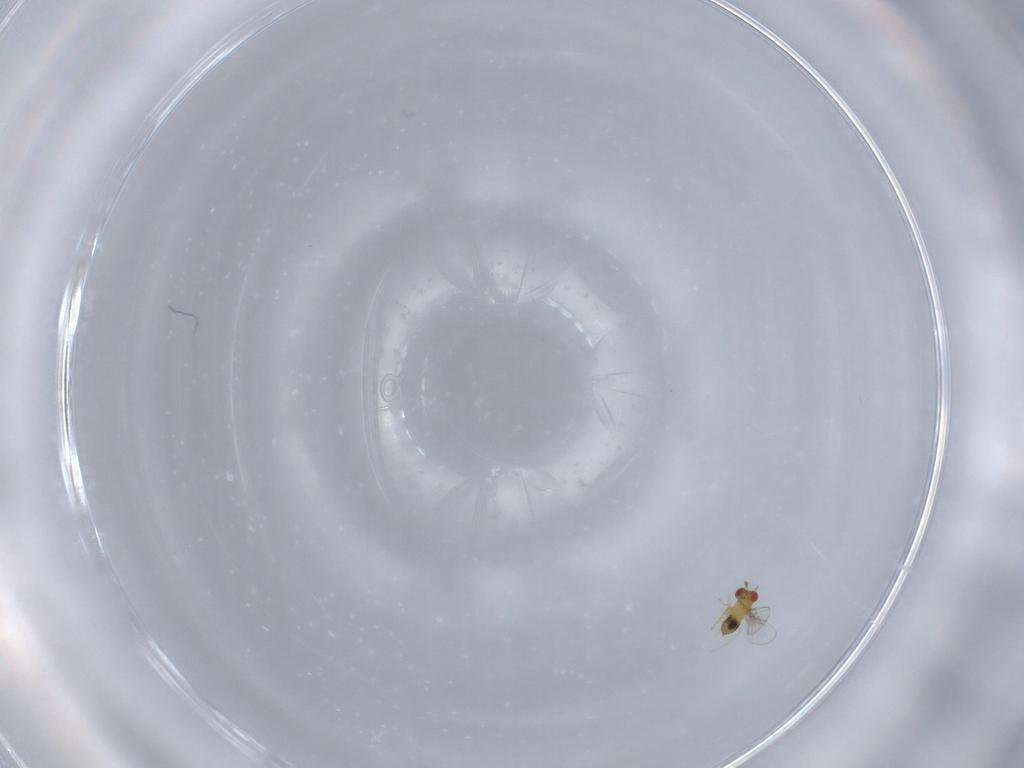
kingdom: Animalia
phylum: Arthropoda
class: Insecta
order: Hymenoptera
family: Trichogrammatidae
